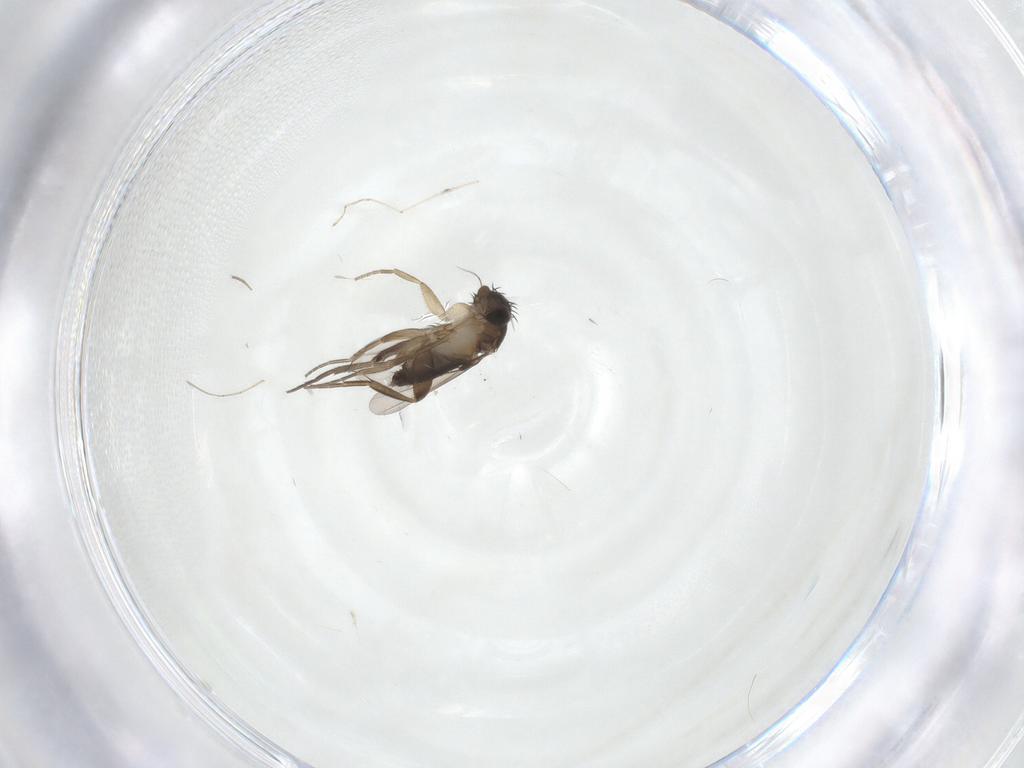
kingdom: Animalia
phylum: Arthropoda
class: Insecta
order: Diptera
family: Phoridae
